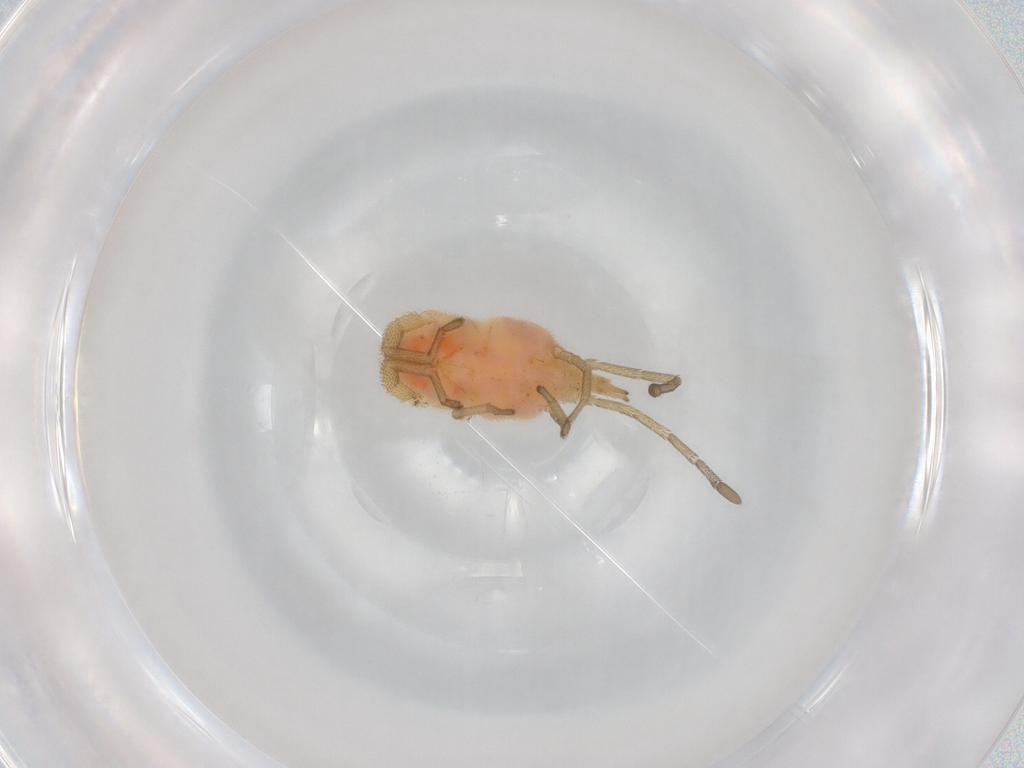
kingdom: Animalia
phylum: Arthropoda
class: Arachnida
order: Trombidiformes
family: Smarididae
